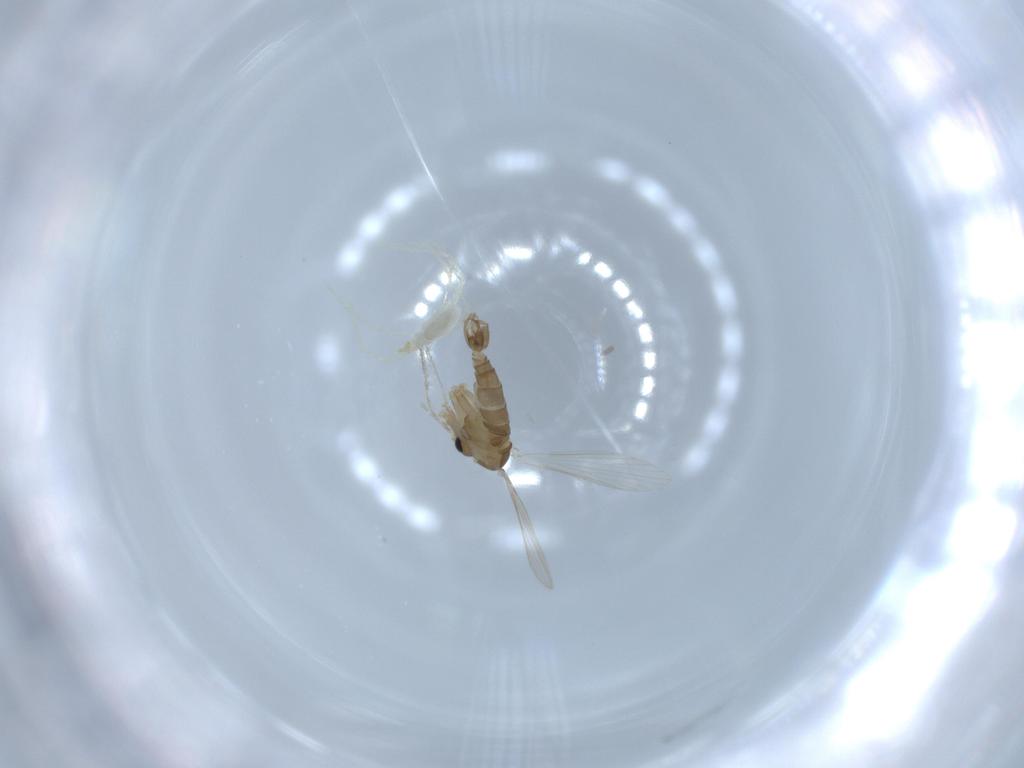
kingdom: Animalia
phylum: Arthropoda
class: Insecta
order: Diptera
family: Psychodidae
